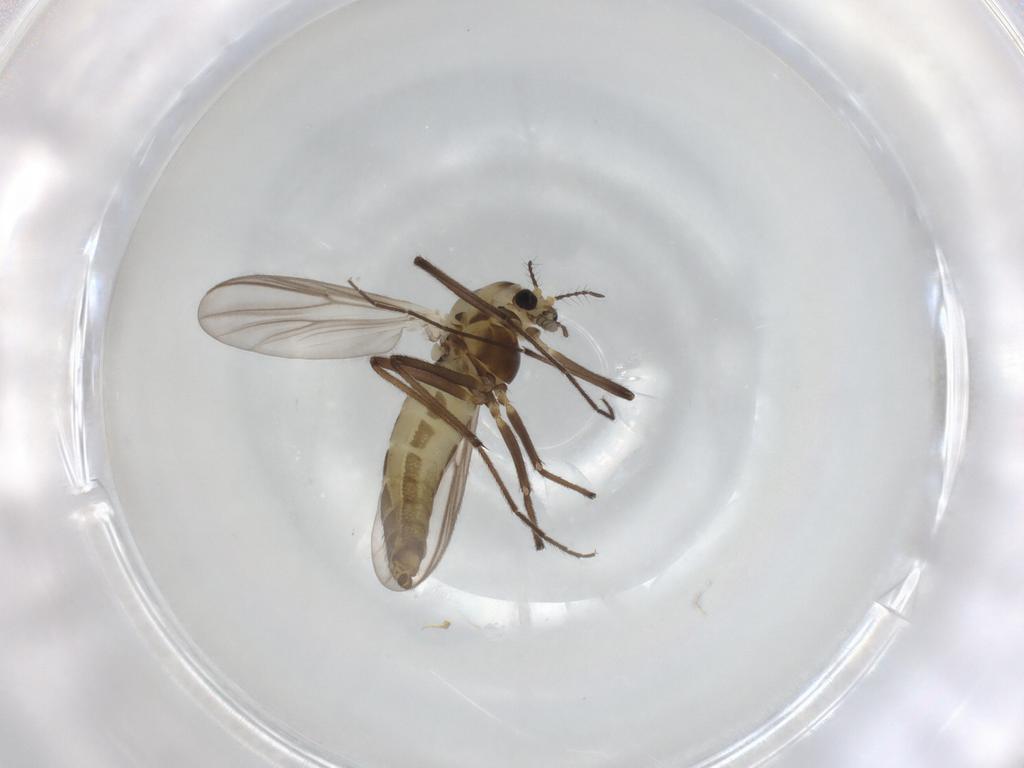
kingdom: Animalia
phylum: Arthropoda
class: Insecta
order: Diptera
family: Chironomidae
